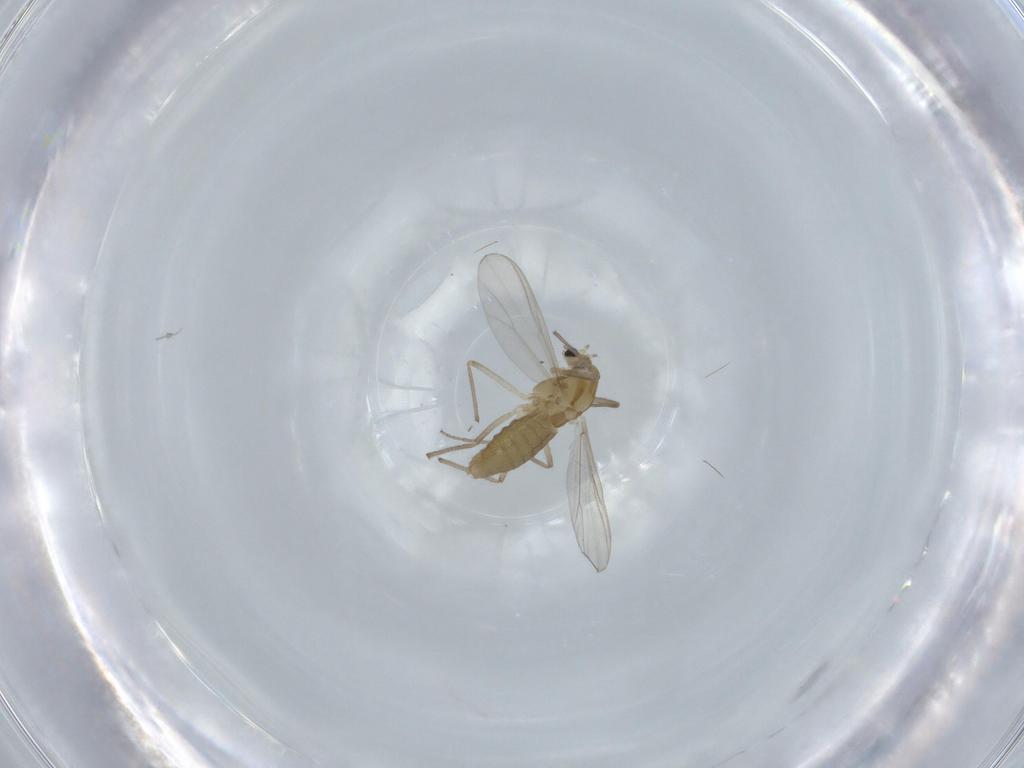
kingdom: Animalia
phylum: Arthropoda
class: Insecta
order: Diptera
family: Chironomidae
